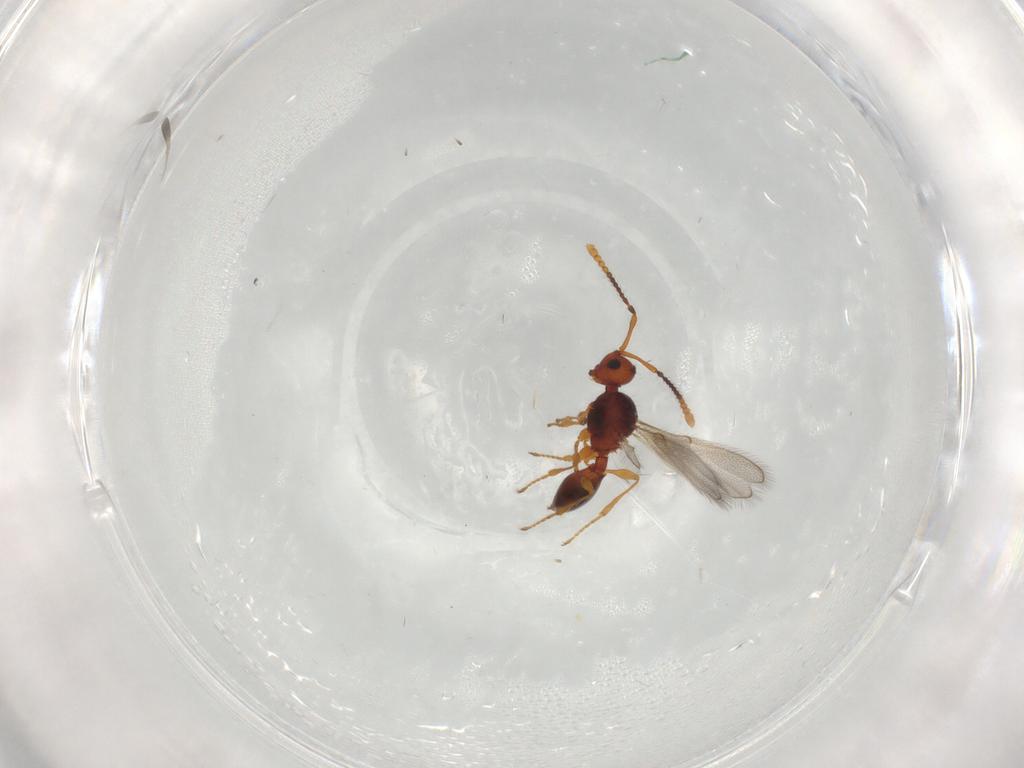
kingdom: Animalia
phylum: Arthropoda
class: Insecta
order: Hymenoptera
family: Diapriidae
